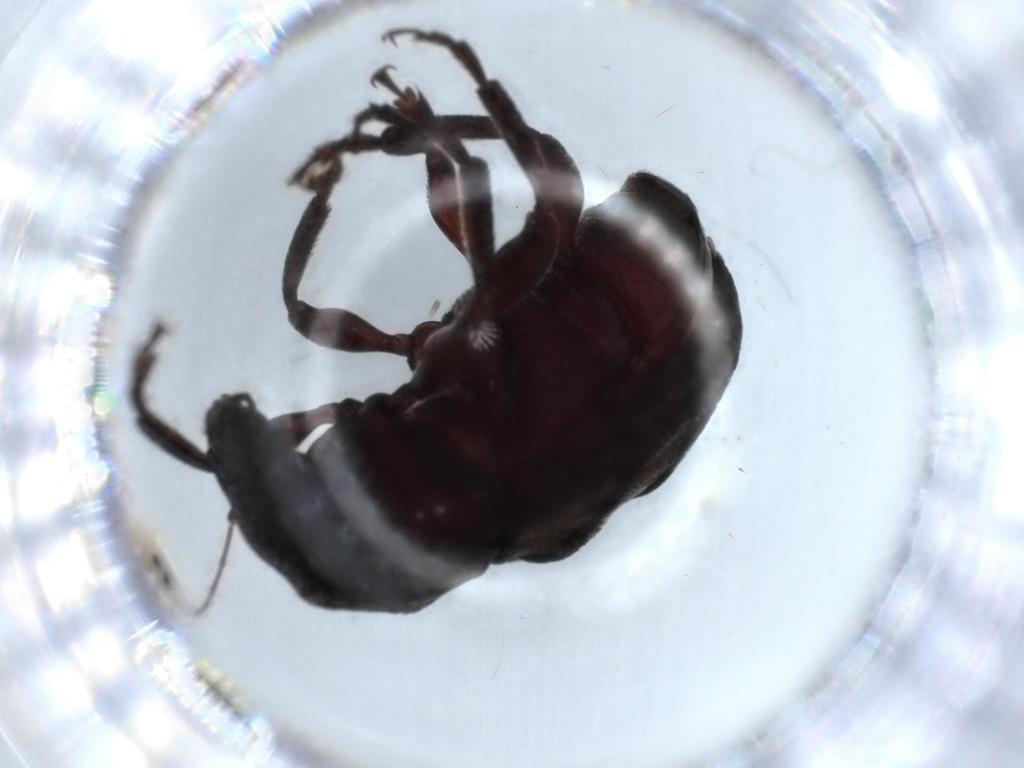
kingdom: Animalia
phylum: Arthropoda
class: Insecta
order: Coleoptera
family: Anthribidae
